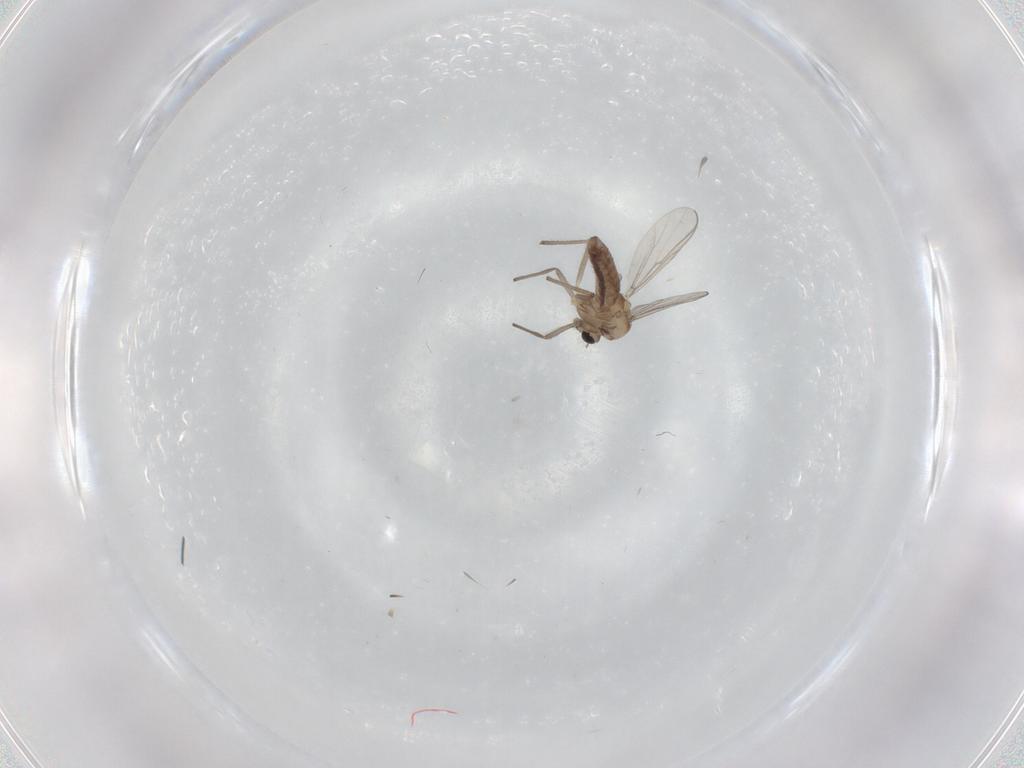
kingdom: Animalia
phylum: Arthropoda
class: Insecta
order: Diptera
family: Chironomidae
